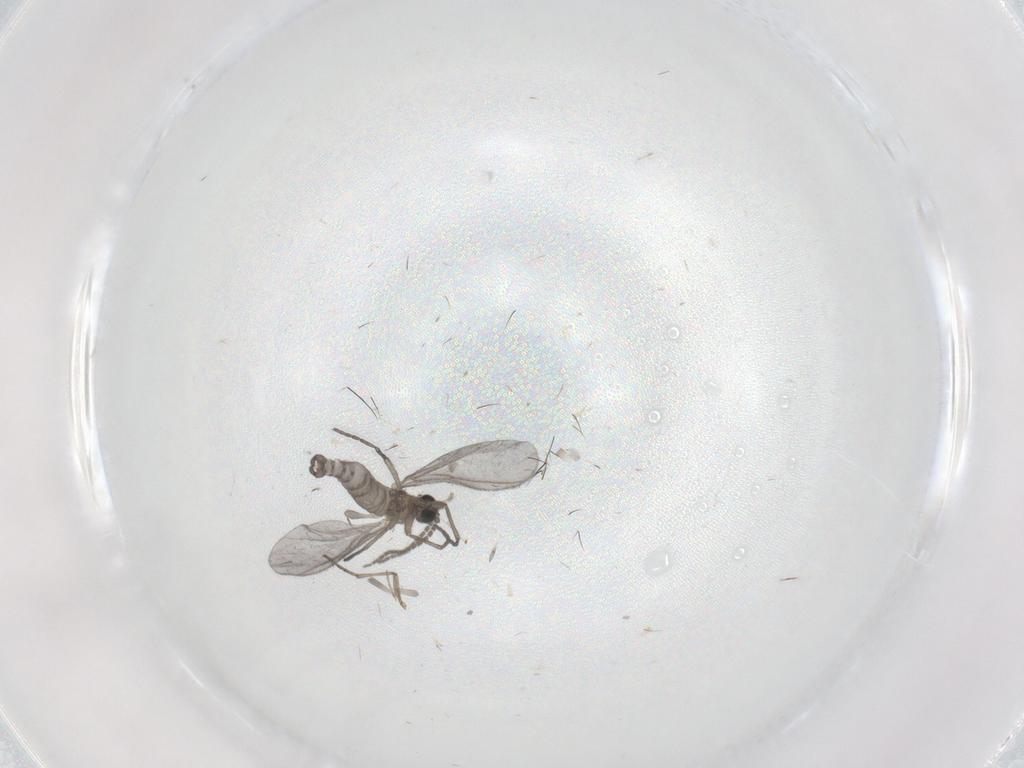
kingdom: Animalia
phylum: Arthropoda
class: Insecta
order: Diptera
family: Sciaridae
